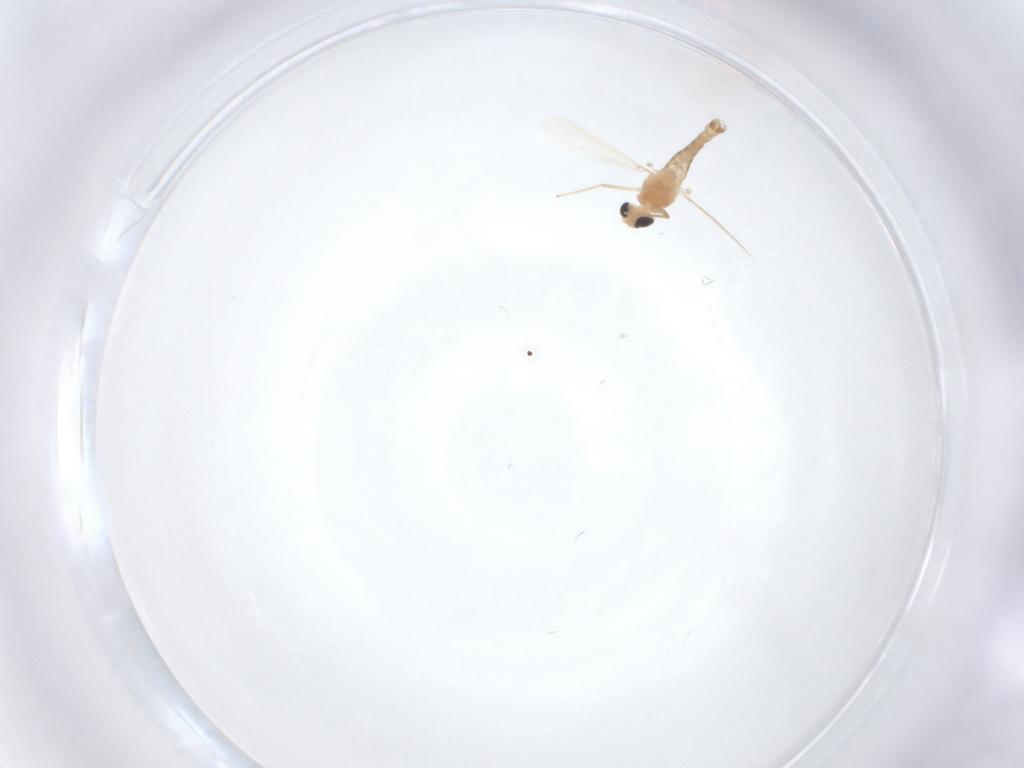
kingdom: Animalia
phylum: Arthropoda
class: Insecta
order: Diptera
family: Chironomidae
